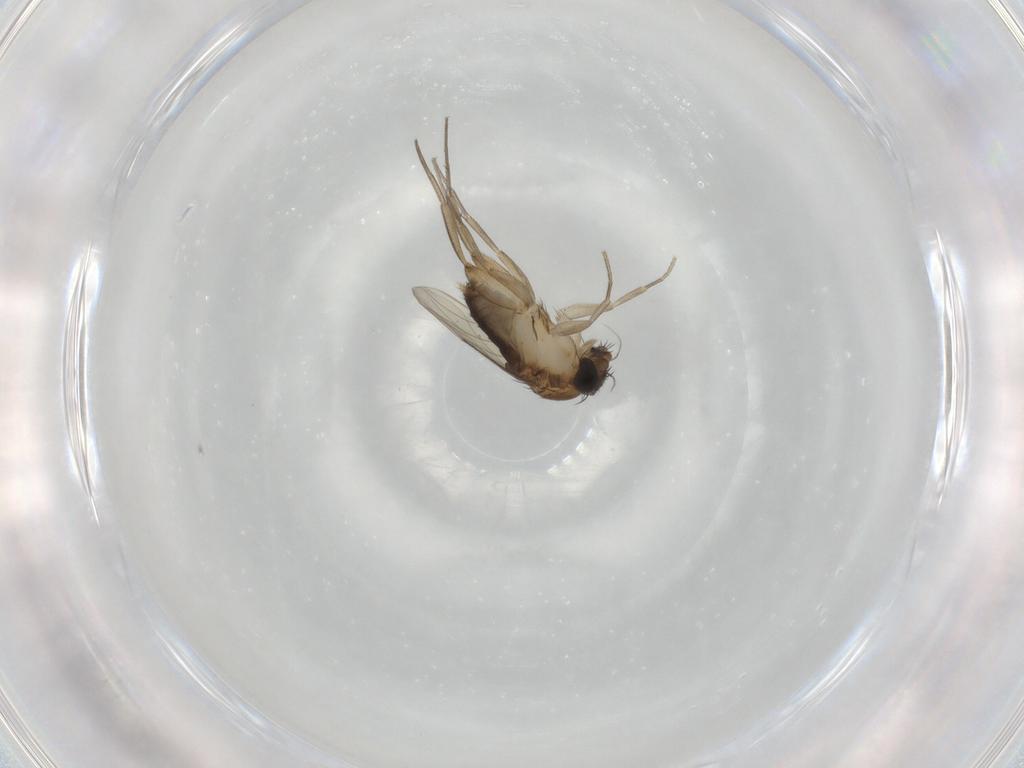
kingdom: Animalia
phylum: Arthropoda
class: Insecta
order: Diptera
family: Phoridae
